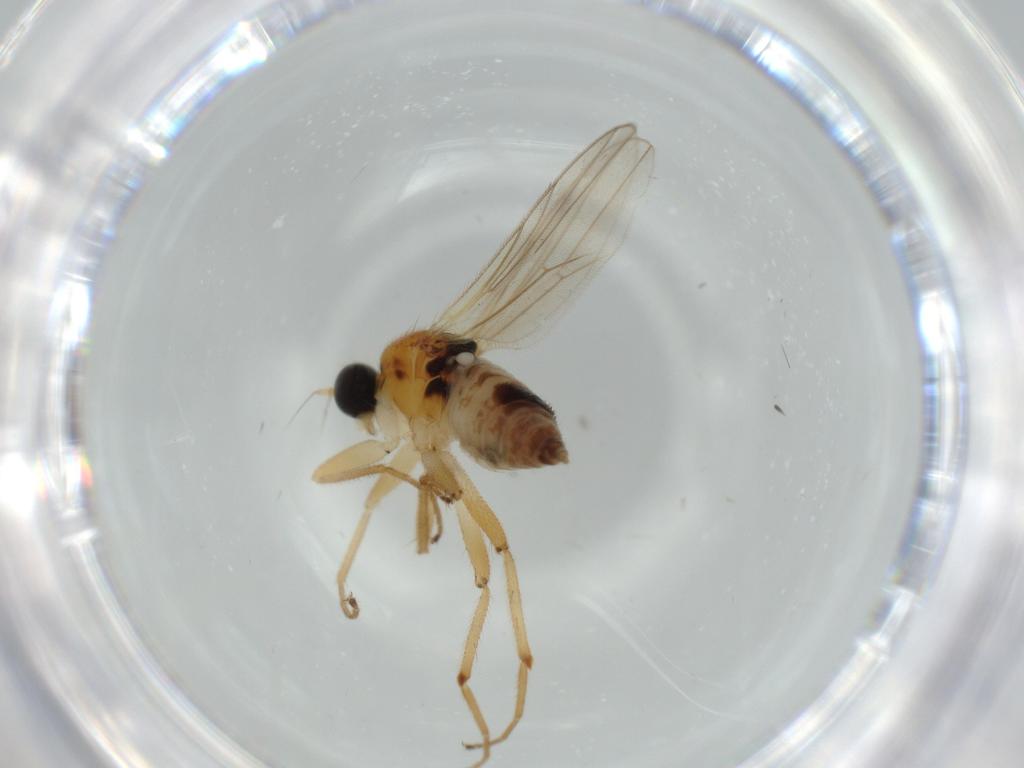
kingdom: Animalia
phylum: Arthropoda
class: Insecta
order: Diptera
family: Hybotidae
